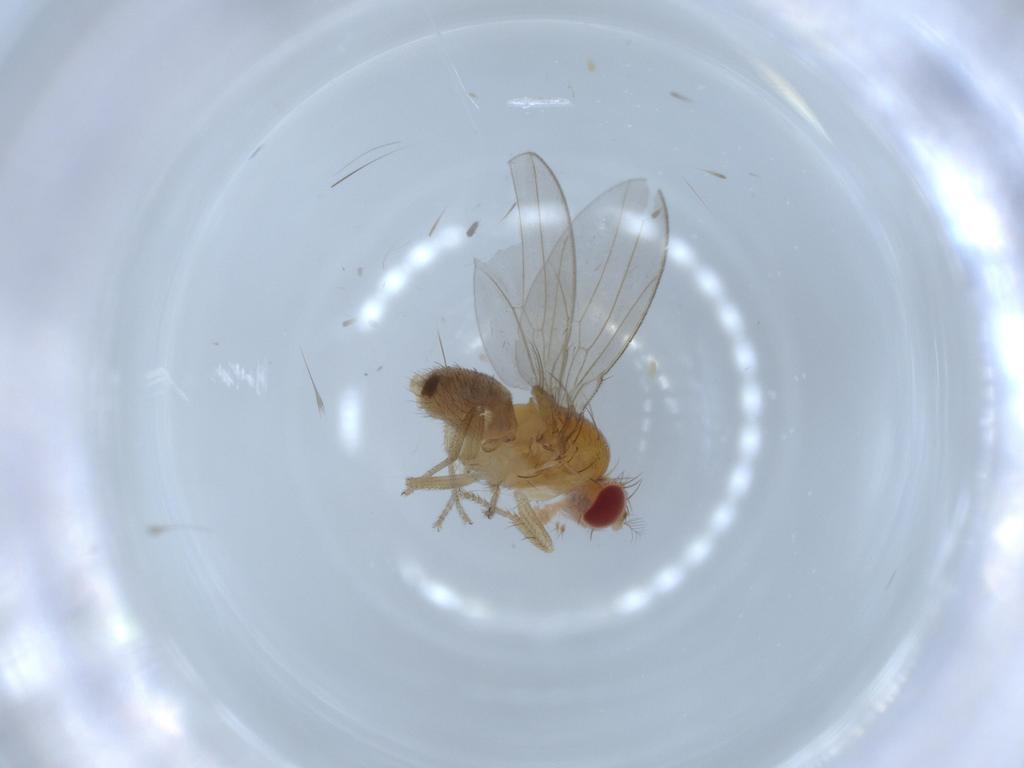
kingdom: Animalia
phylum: Arthropoda
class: Insecta
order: Diptera
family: Drosophilidae
